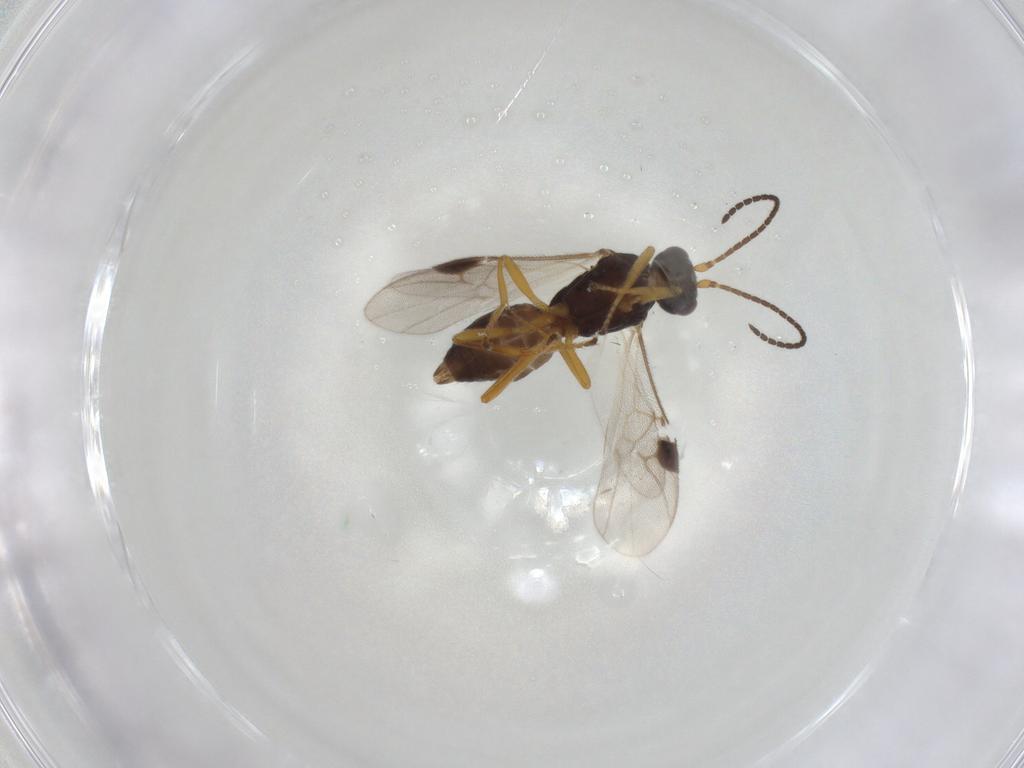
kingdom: Animalia
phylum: Arthropoda
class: Insecta
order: Hymenoptera
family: Braconidae
